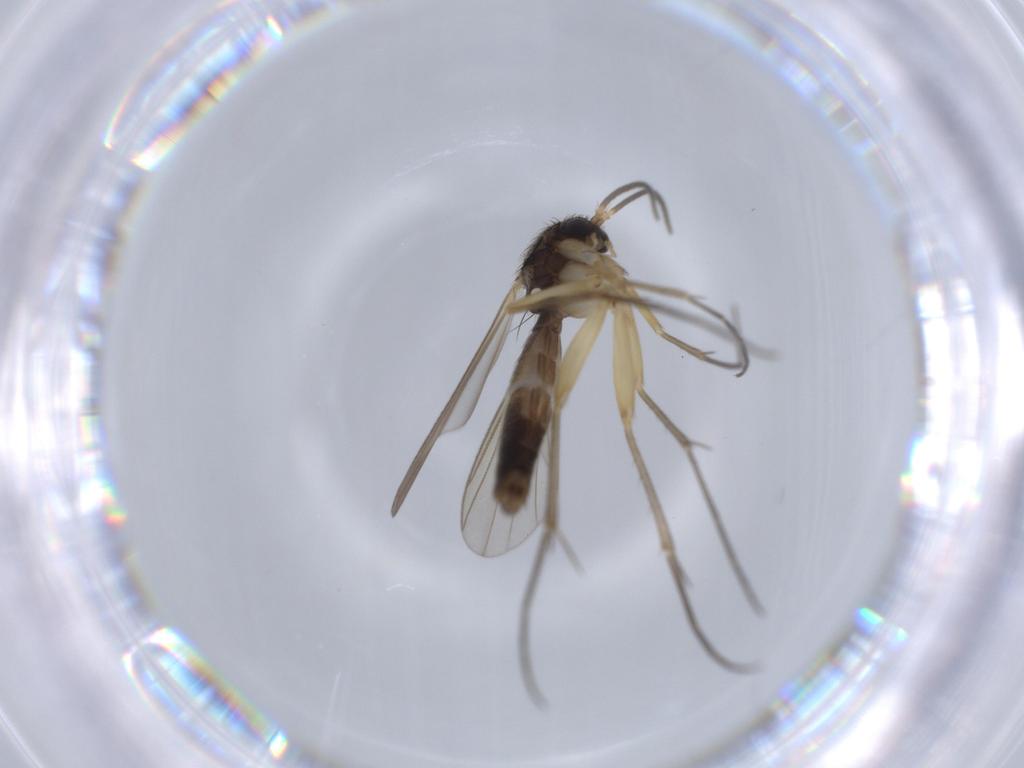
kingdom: Animalia
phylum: Arthropoda
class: Insecta
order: Diptera
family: Mycetophilidae
